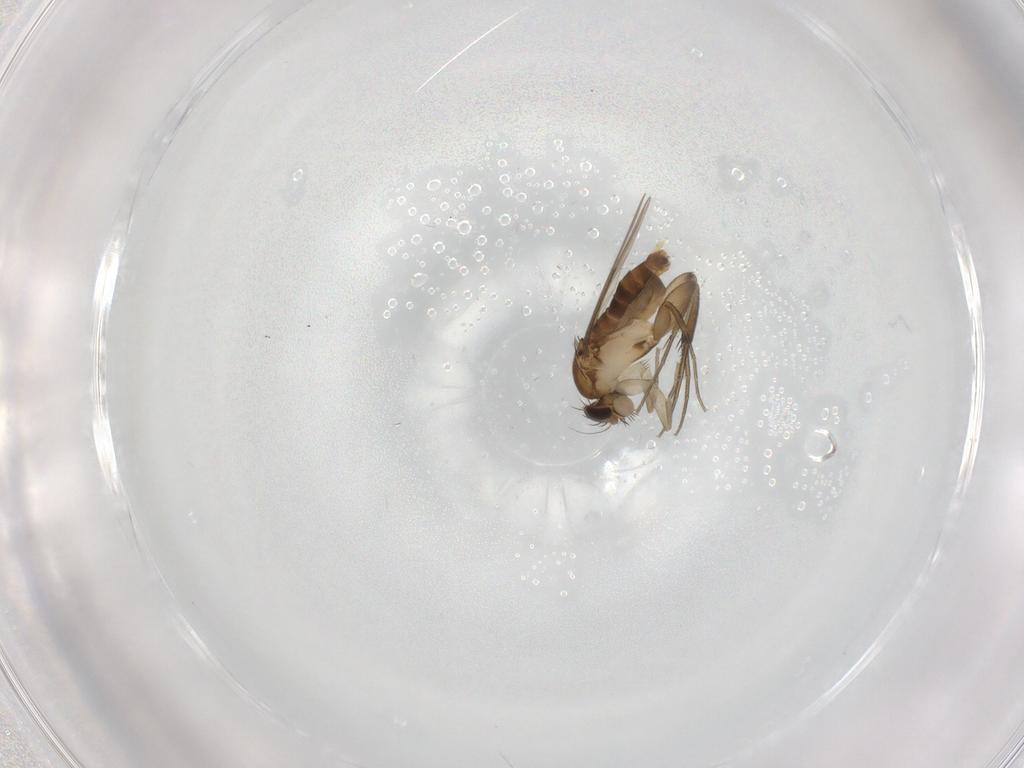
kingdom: Animalia
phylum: Arthropoda
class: Insecta
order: Diptera
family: Phoridae
